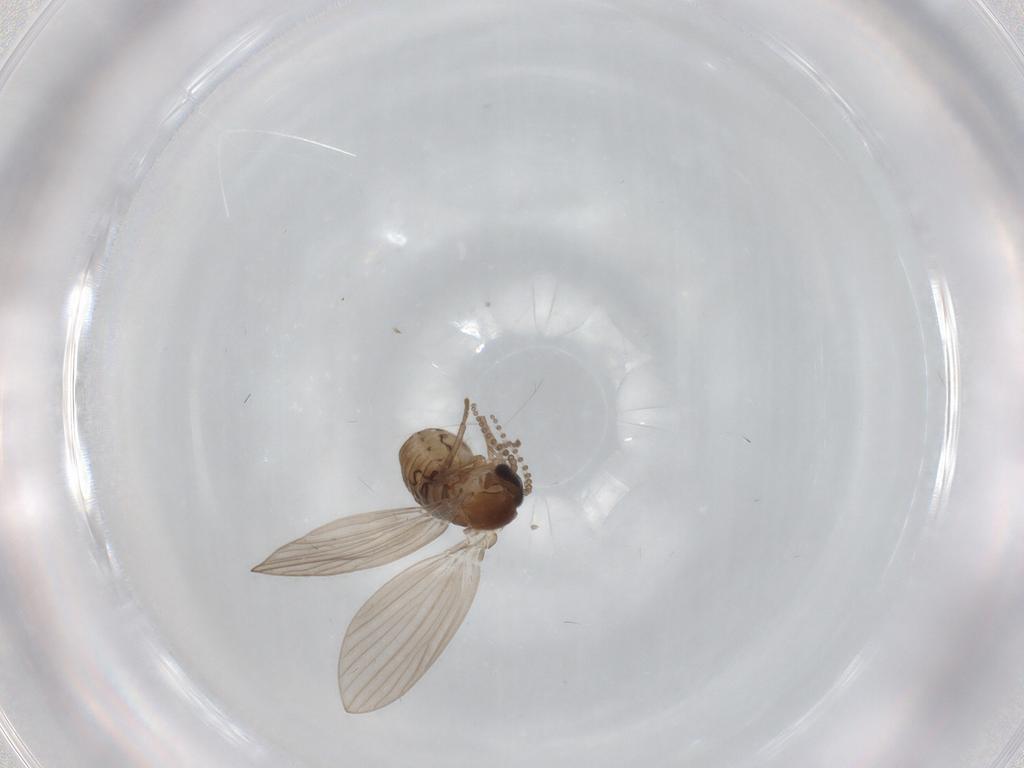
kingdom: Animalia
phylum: Arthropoda
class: Insecta
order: Diptera
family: Psychodidae
